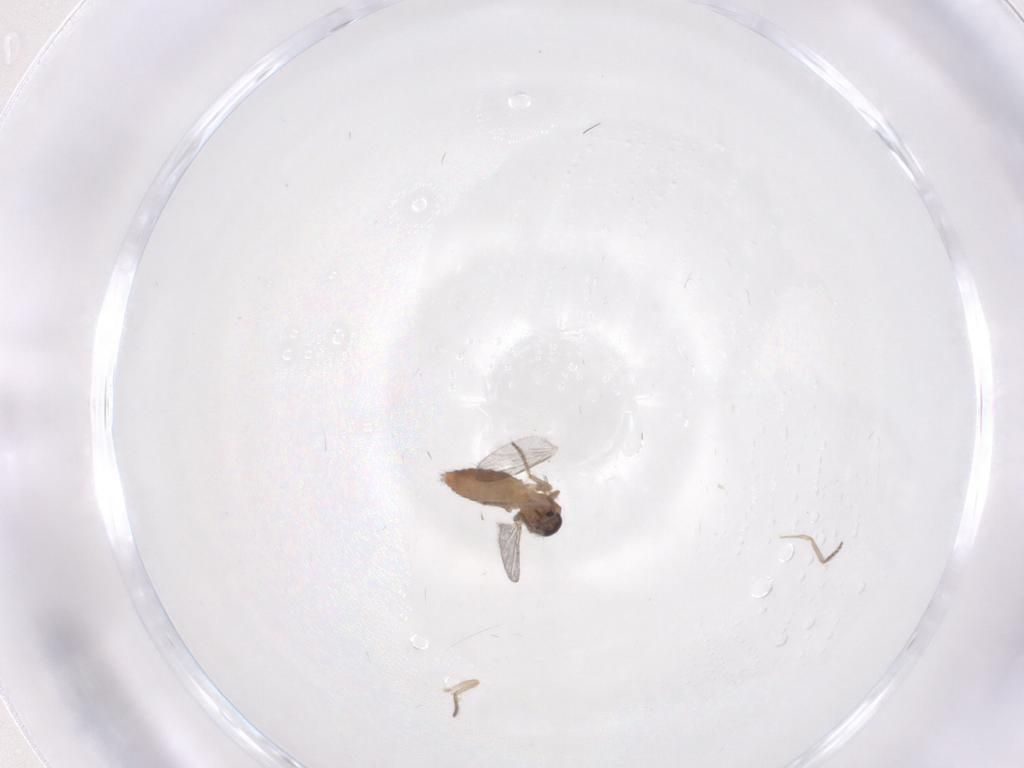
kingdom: Animalia
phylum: Arthropoda
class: Insecta
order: Diptera
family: Ceratopogonidae
